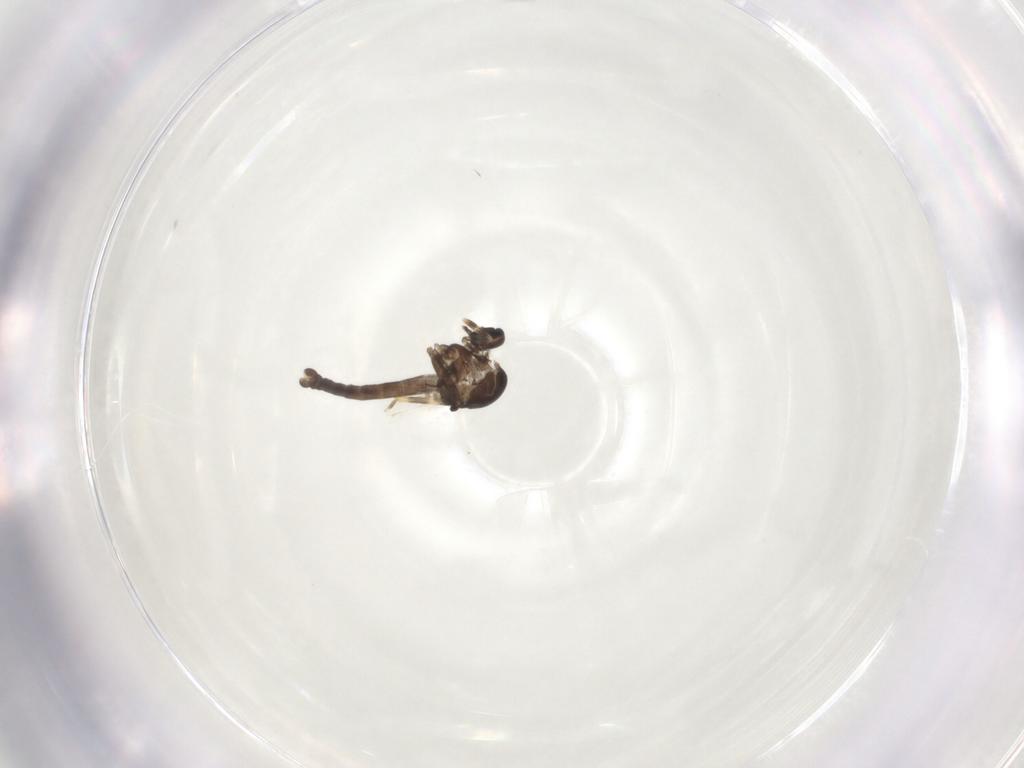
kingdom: Animalia
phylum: Arthropoda
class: Insecta
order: Diptera
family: Ceratopogonidae
